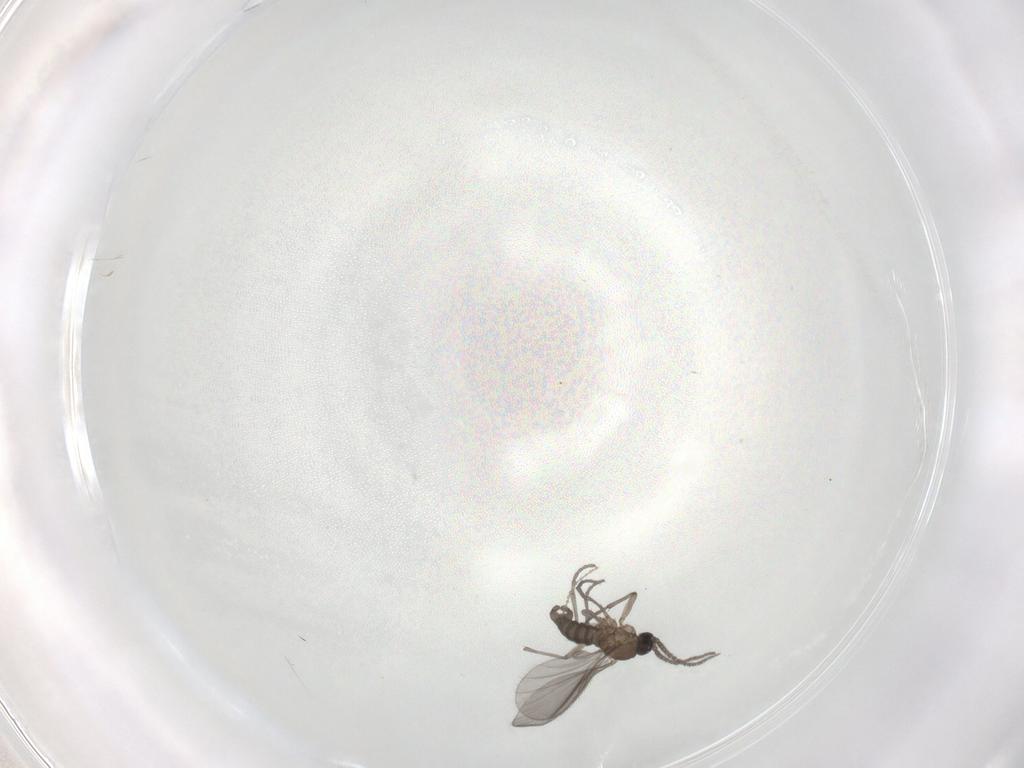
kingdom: Animalia
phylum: Arthropoda
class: Insecta
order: Diptera
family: Sciaridae
